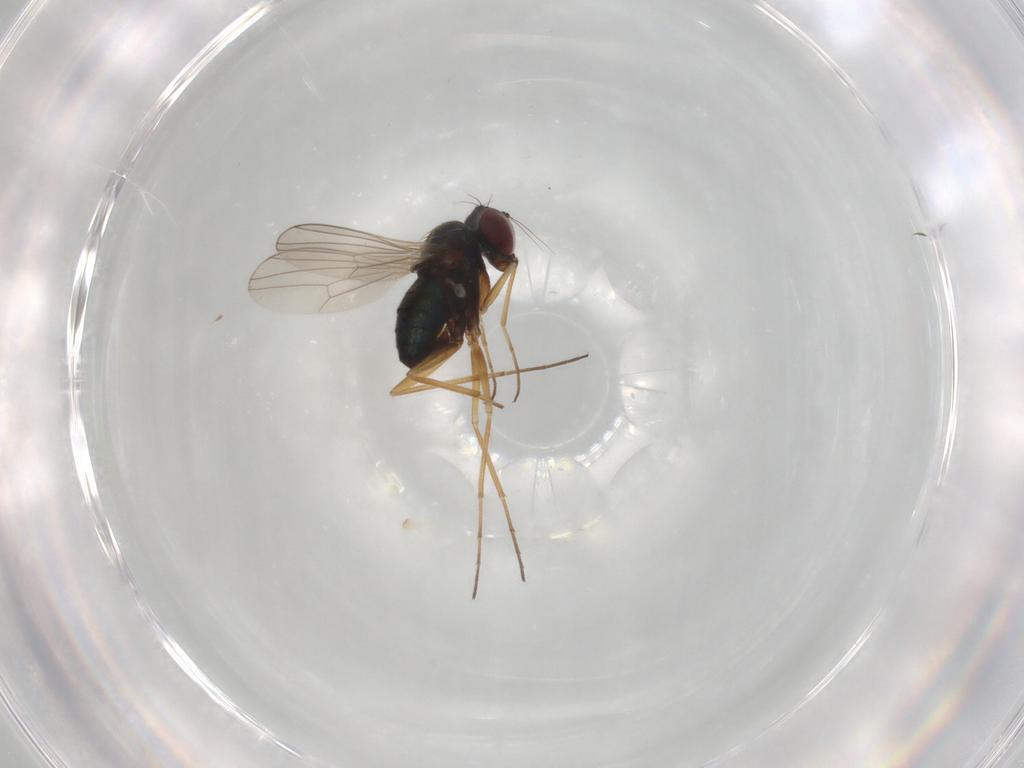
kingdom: Animalia
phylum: Arthropoda
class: Insecta
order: Diptera
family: Dolichopodidae
